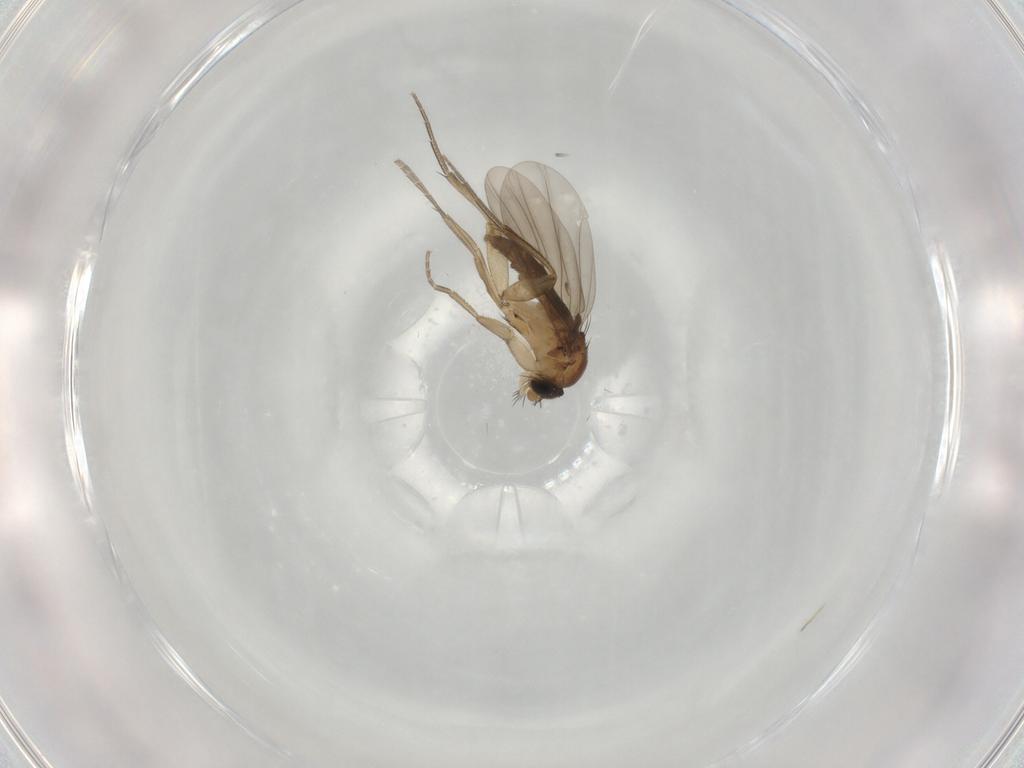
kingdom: Animalia
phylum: Arthropoda
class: Insecta
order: Diptera
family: Phoridae
